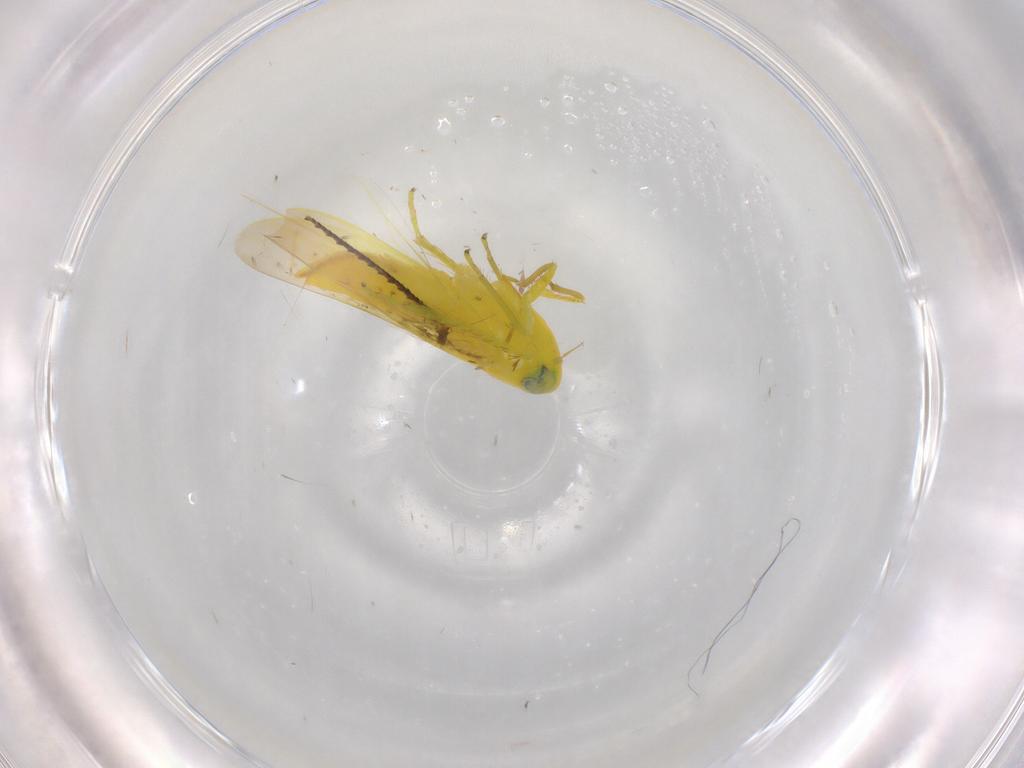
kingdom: Animalia
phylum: Arthropoda
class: Insecta
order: Hemiptera
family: Cicadellidae
